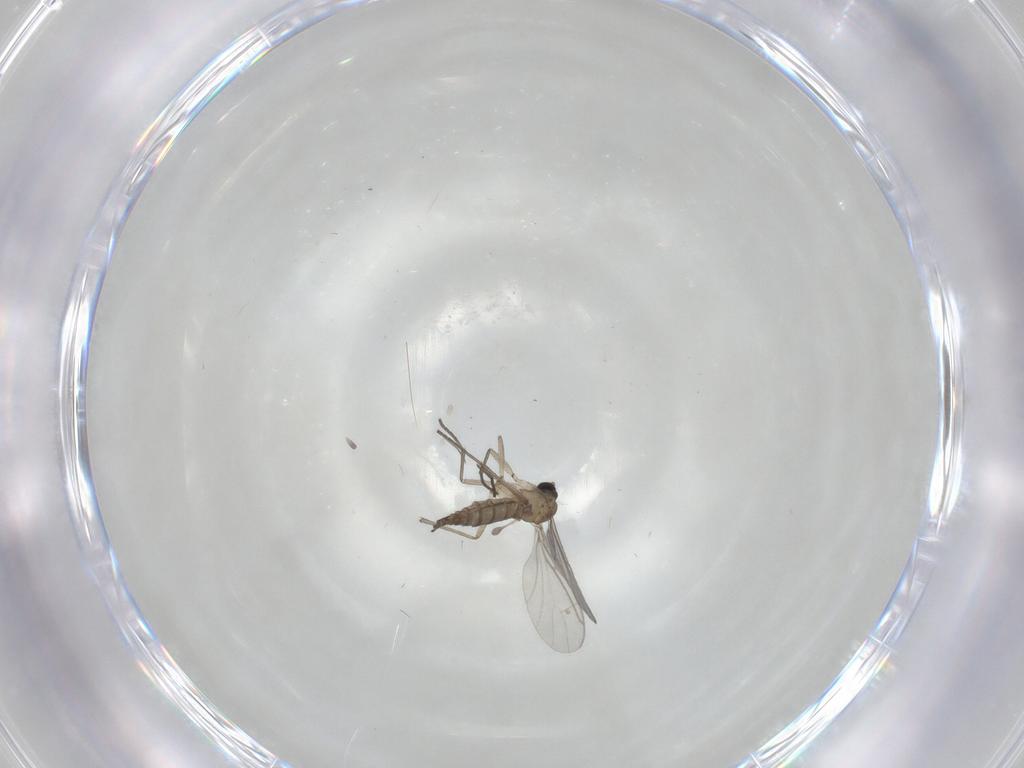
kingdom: Animalia
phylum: Arthropoda
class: Insecta
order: Diptera
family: Sciaridae
